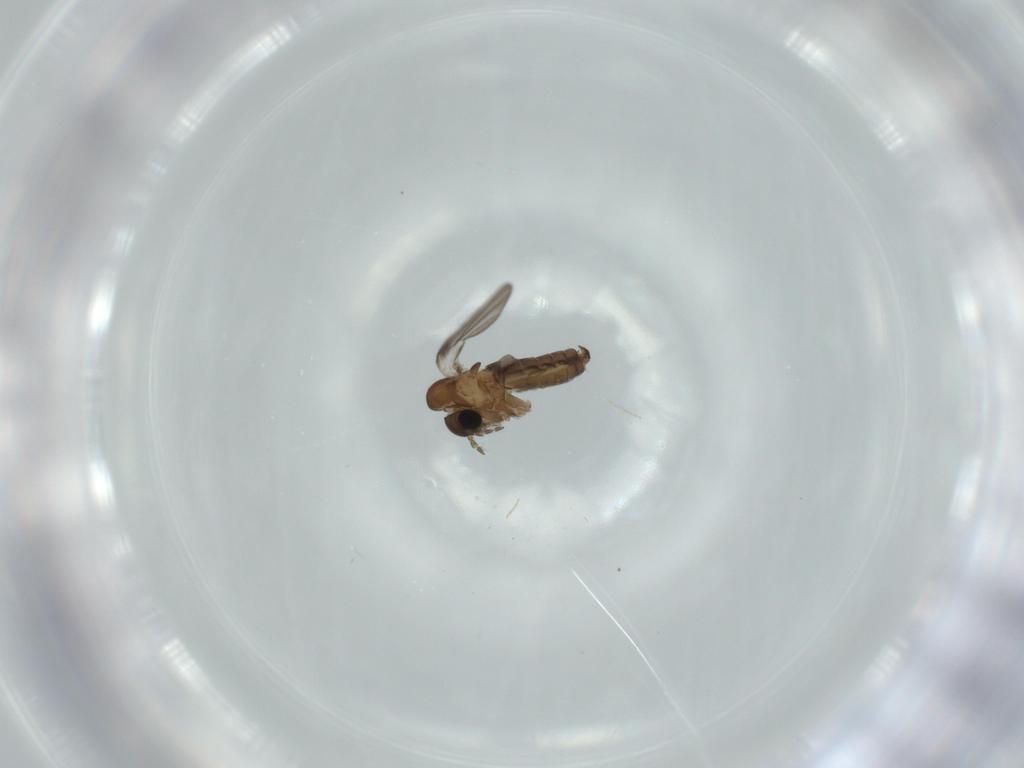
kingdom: Animalia
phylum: Arthropoda
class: Insecta
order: Diptera
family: Psychodidae
